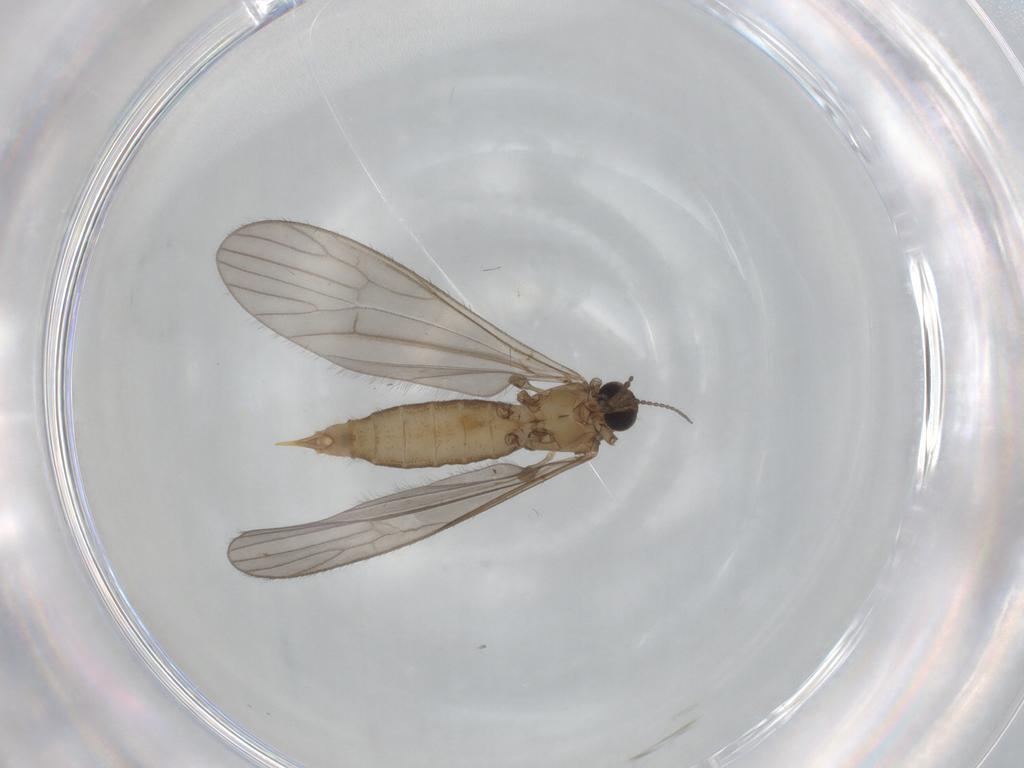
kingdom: Animalia
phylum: Arthropoda
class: Insecta
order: Diptera
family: Limoniidae
